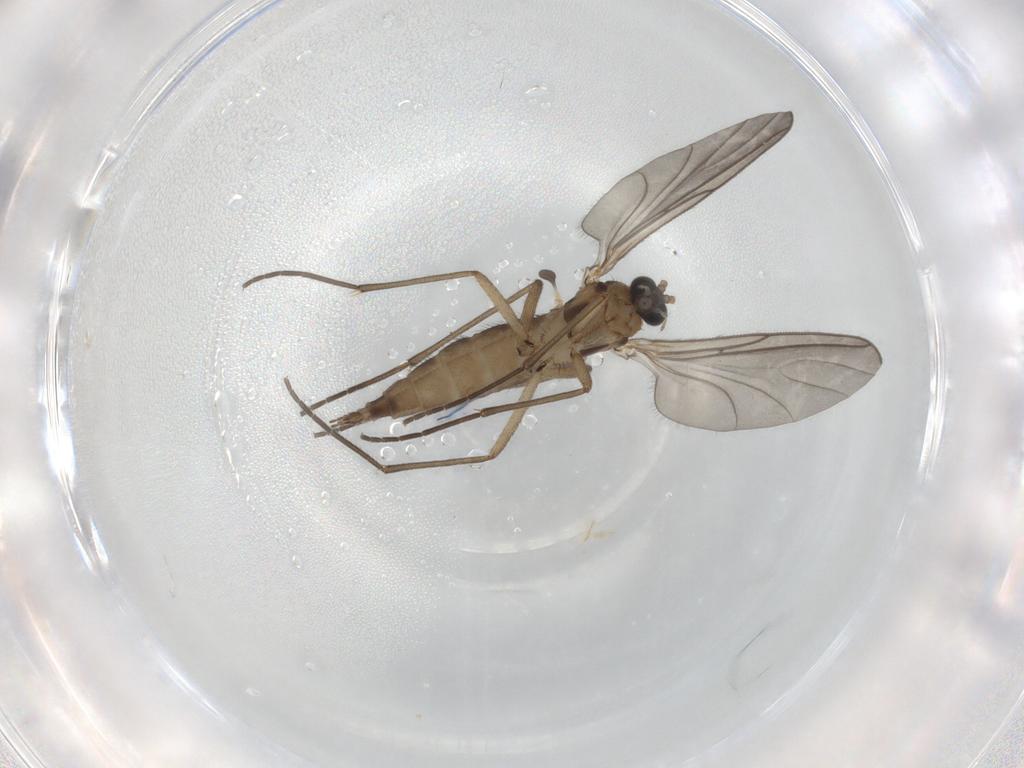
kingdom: Animalia
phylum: Arthropoda
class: Insecta
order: Diptera
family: Sciaridae
